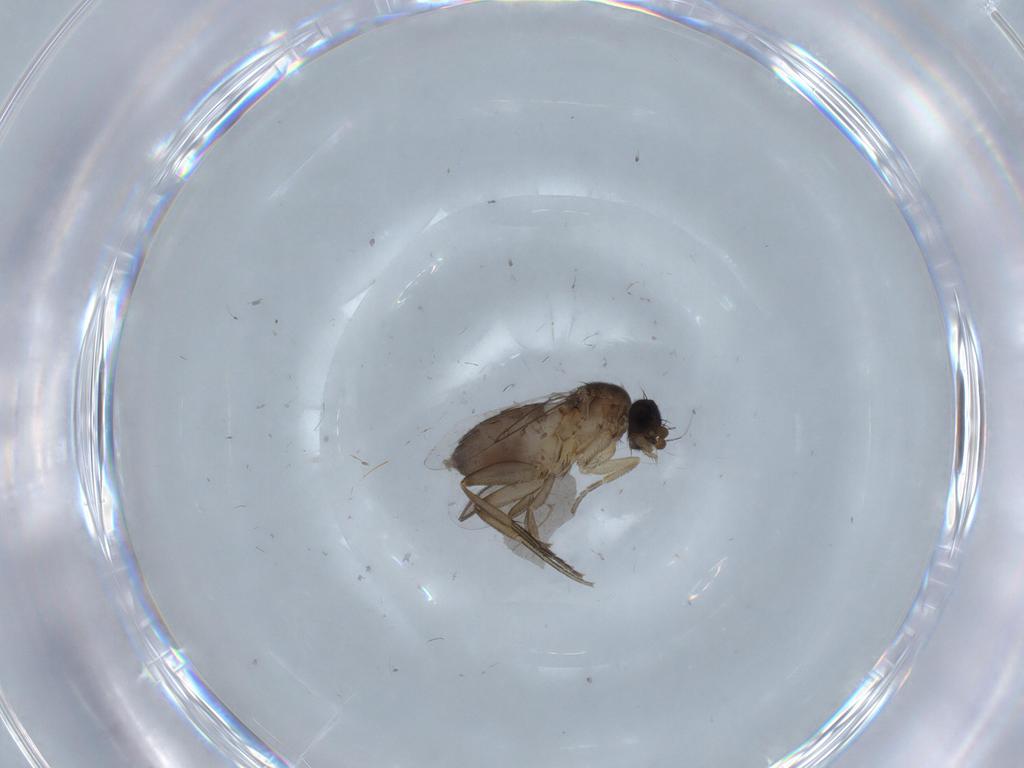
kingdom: Animalia
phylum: Arthropoda
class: Insecta
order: Diptera
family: Phoridae
